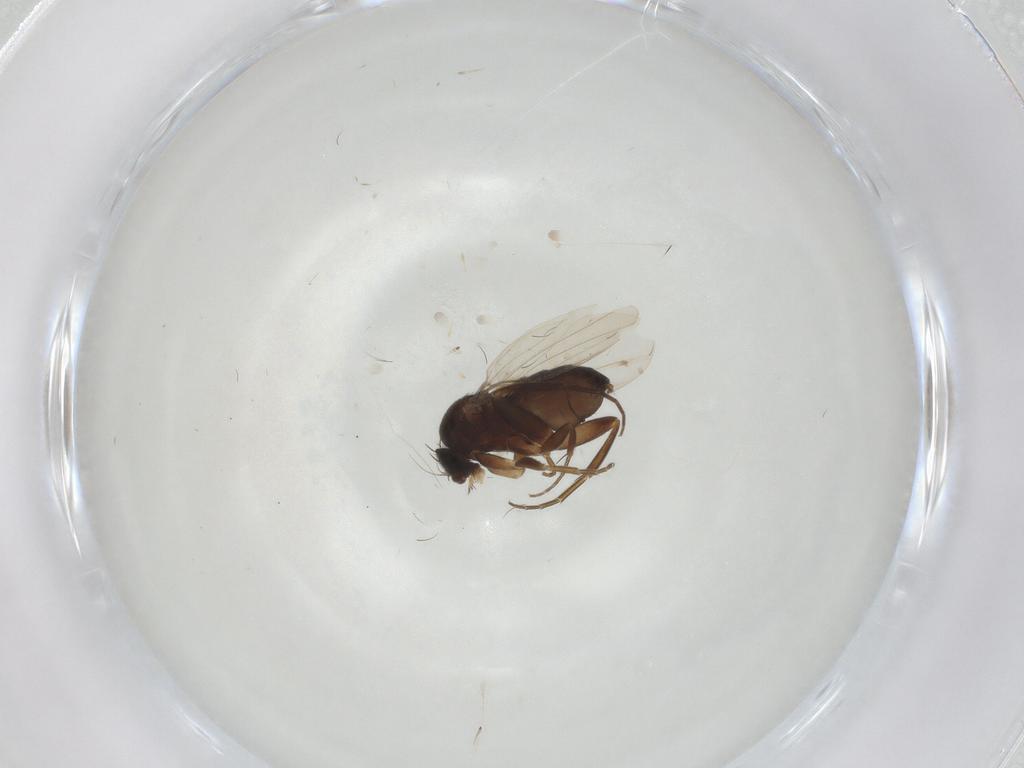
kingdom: Animalia
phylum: Arthropoda
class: Insecta
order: Diptera
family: Phoridae
